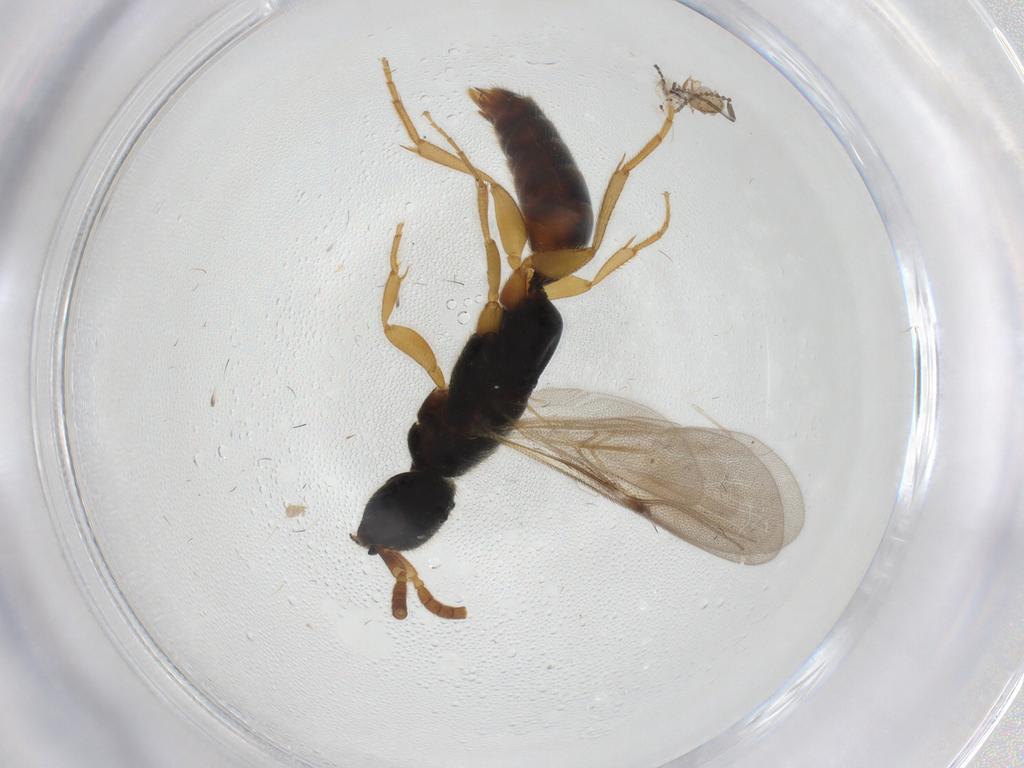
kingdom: Animalia
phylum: Arthropoda
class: Insecta
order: Hymenoptera
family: Bethylidae
